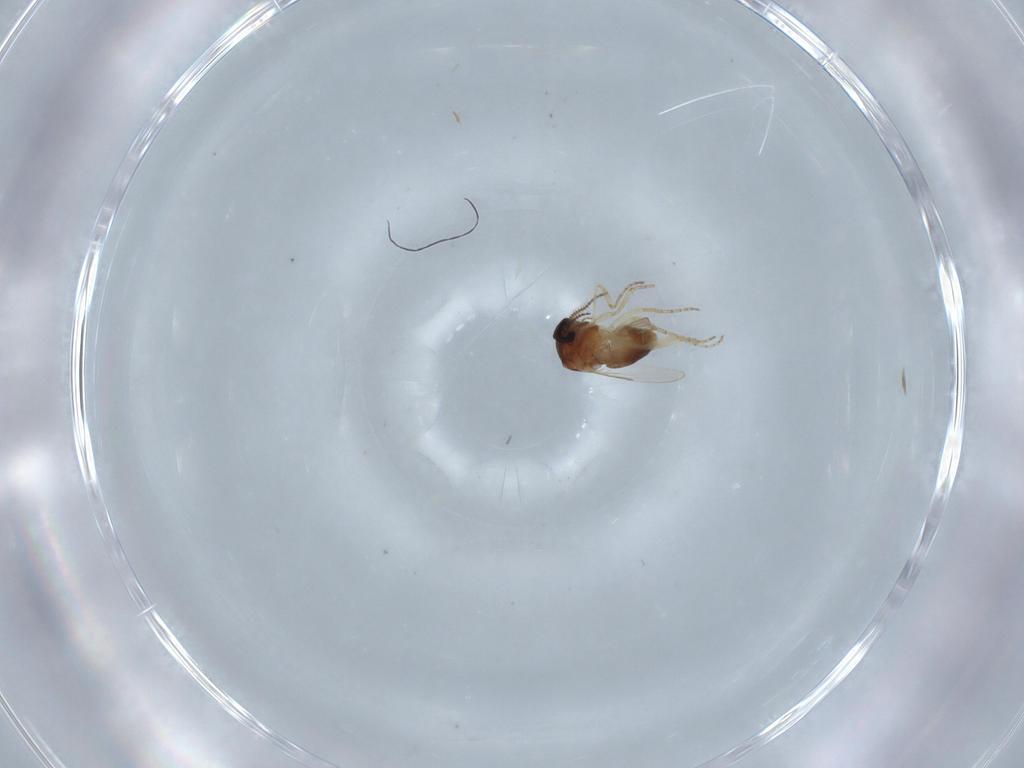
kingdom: Animalia
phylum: Arthropoda
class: Insecta
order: Diptera
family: Ceratopogonidae
